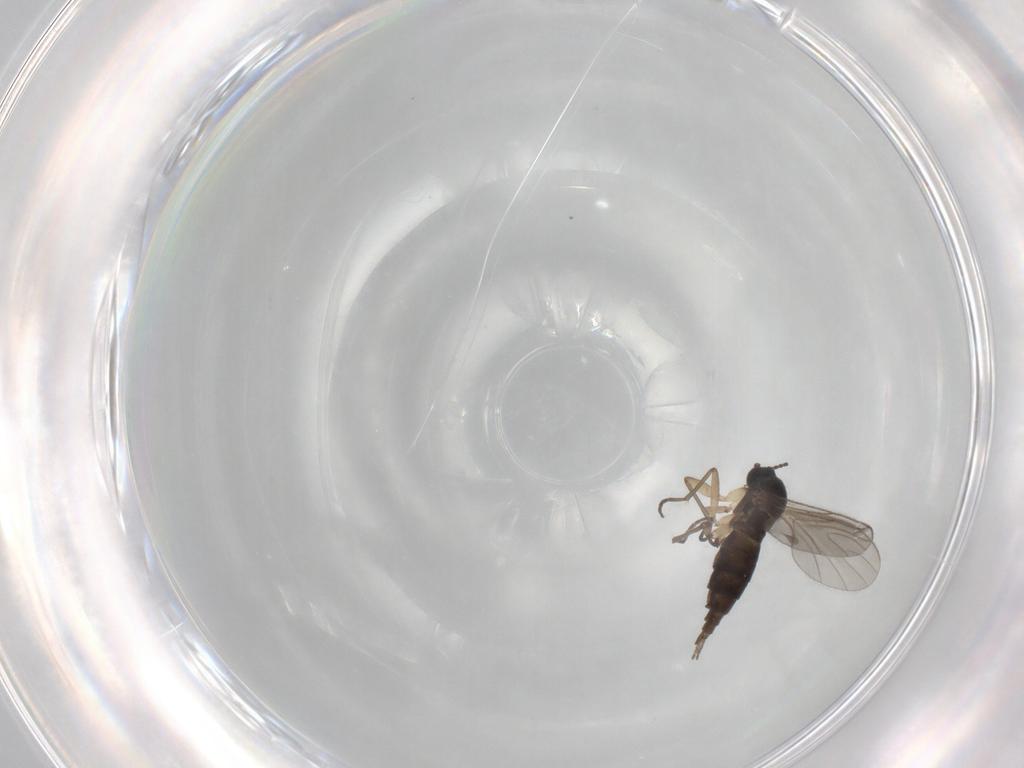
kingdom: Animalia
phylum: Arthropoda
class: Insecta
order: Diptera
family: Sciaridae
